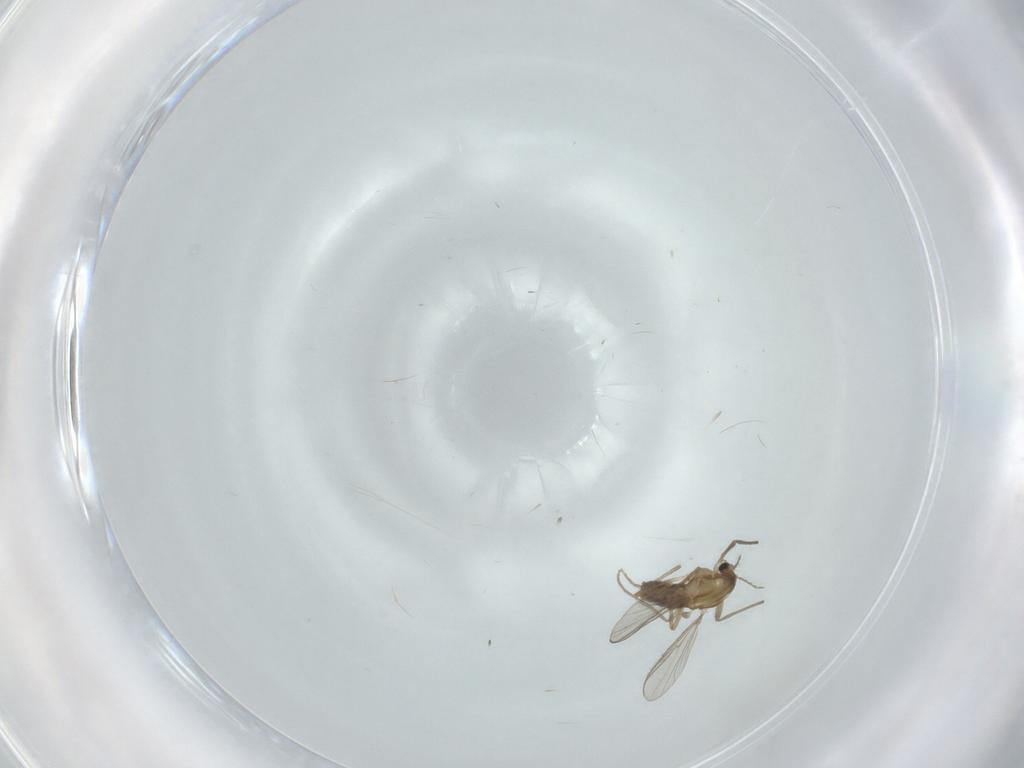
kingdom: Animalia
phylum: Arthropoda
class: Insecta
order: Diptera
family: Chironomidae
